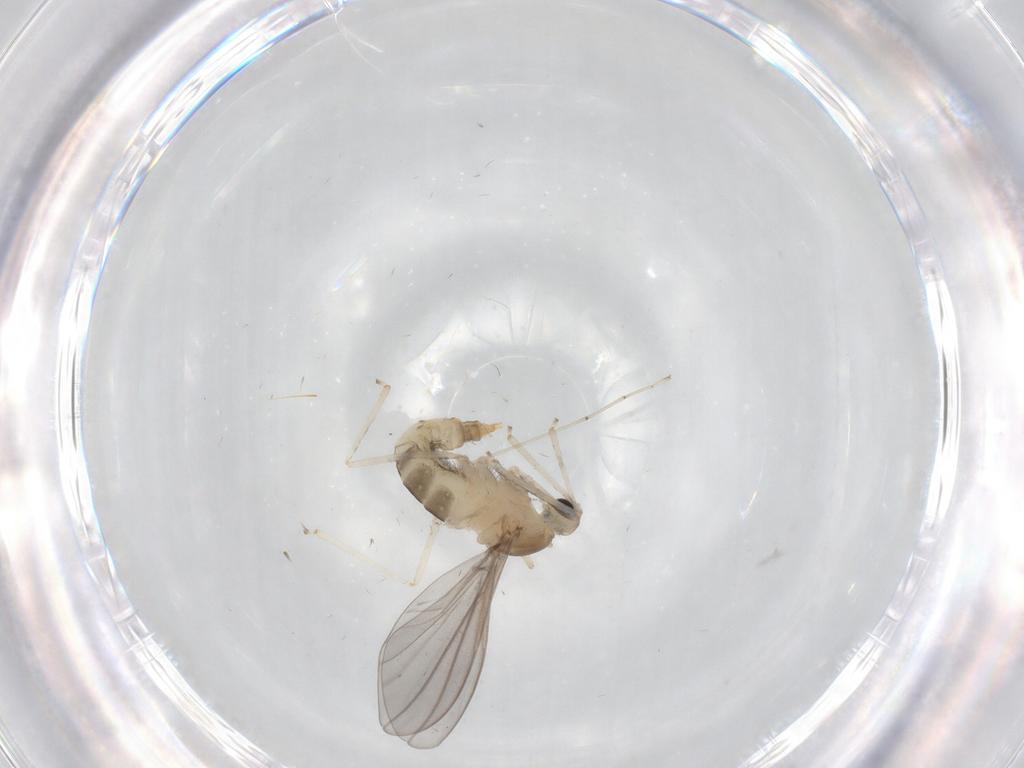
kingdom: Animalia
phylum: Arthropoda
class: Insecta
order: Diptera
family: Cecidomyiidae
